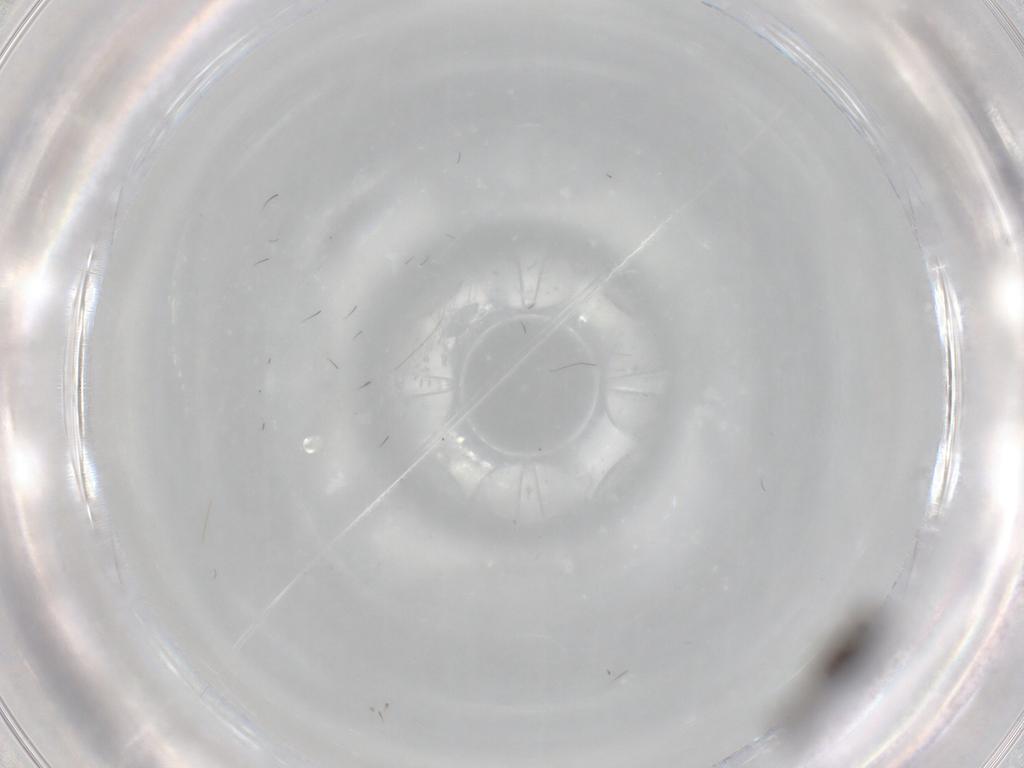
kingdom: Animalia
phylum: Arthropoda
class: Insecta
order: Diptera
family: Cecidomyiidae
